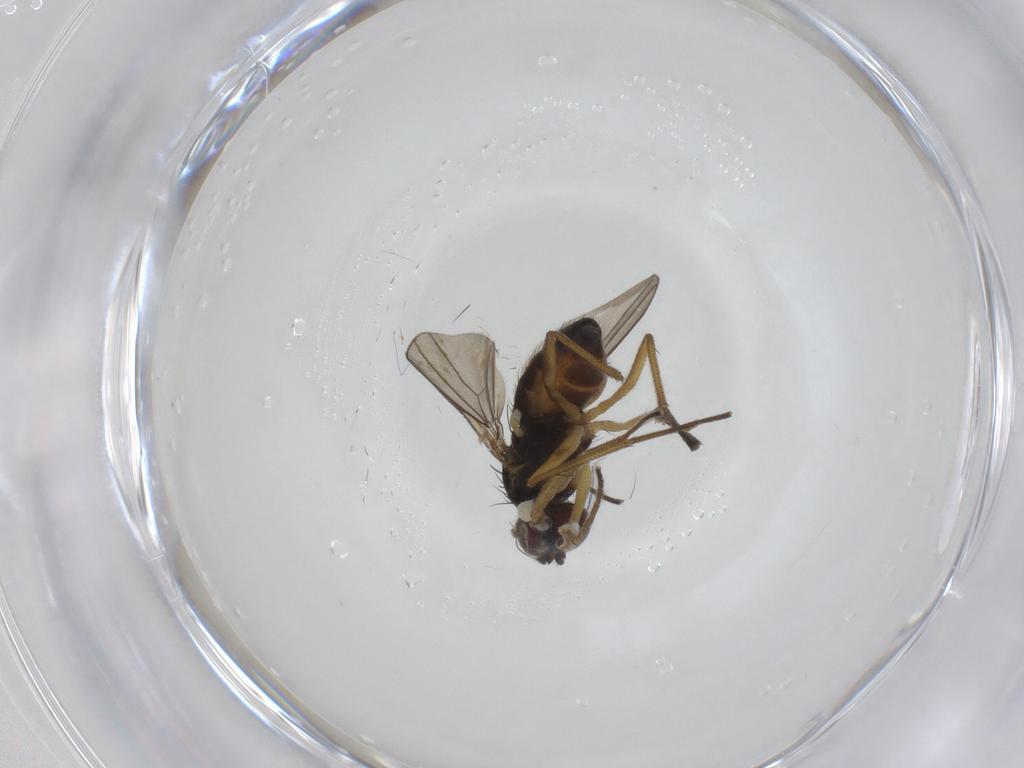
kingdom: Animalia
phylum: Arthropoda
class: Insecta
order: Diptera
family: Dolichopodidae
